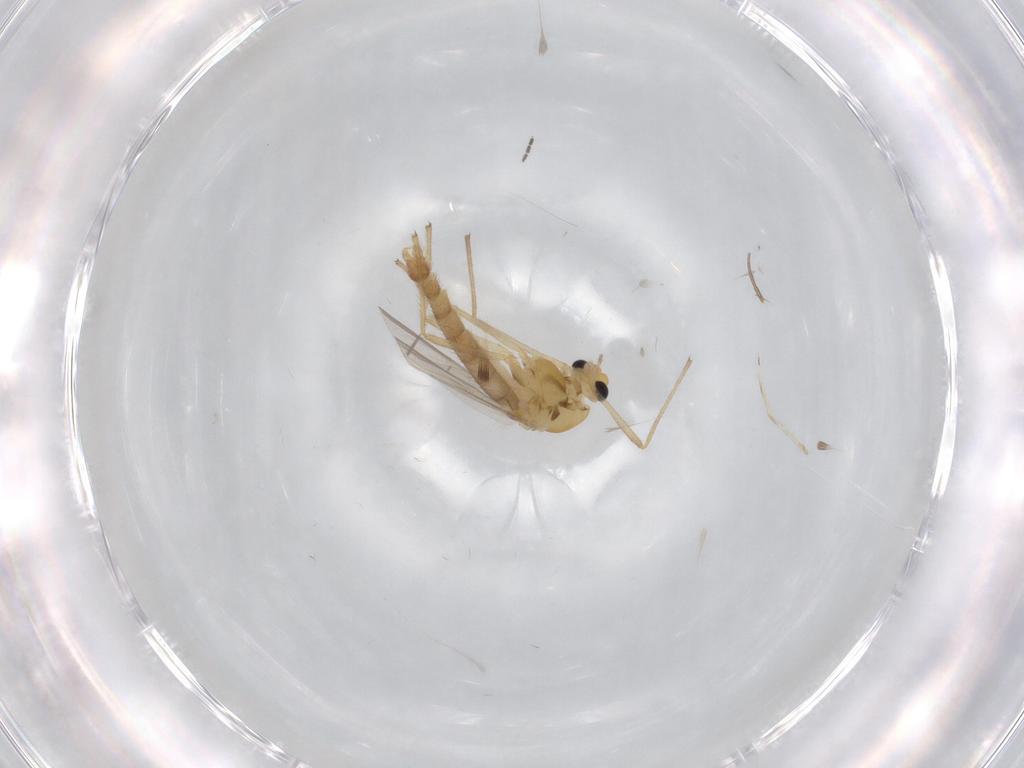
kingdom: Animalia
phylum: Arthropoda
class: Insecta
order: Diptera
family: Chironomidae
